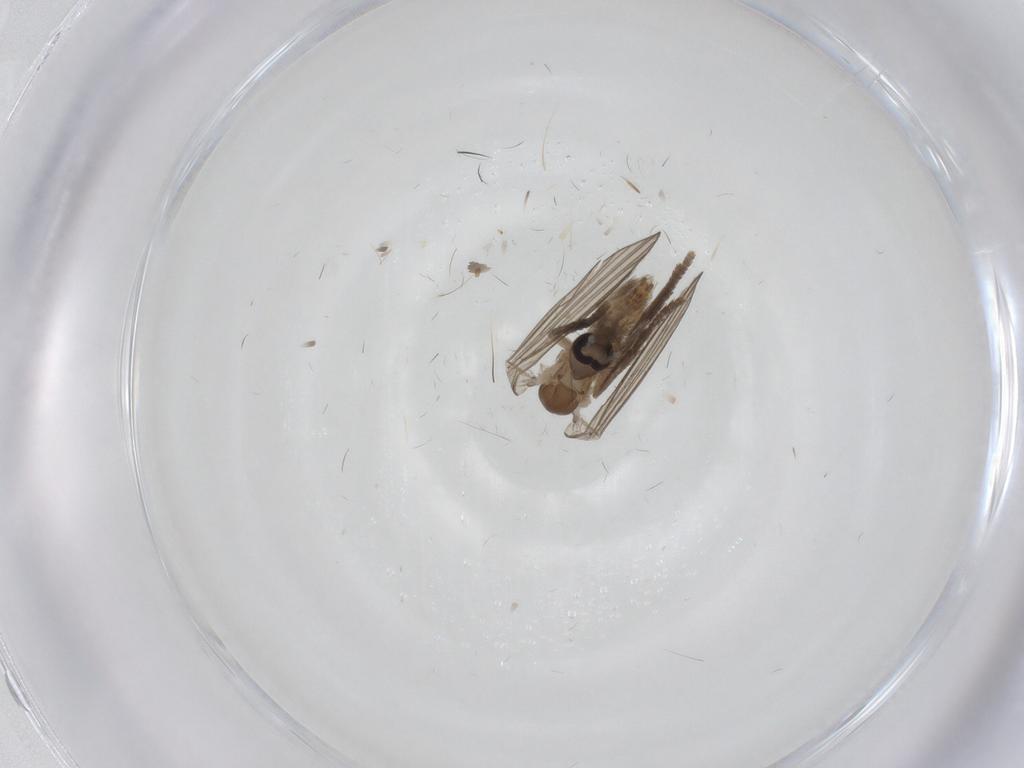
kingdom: Animalia
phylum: Arthropoda
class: Insecta
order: Diptera
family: Psychodidae
